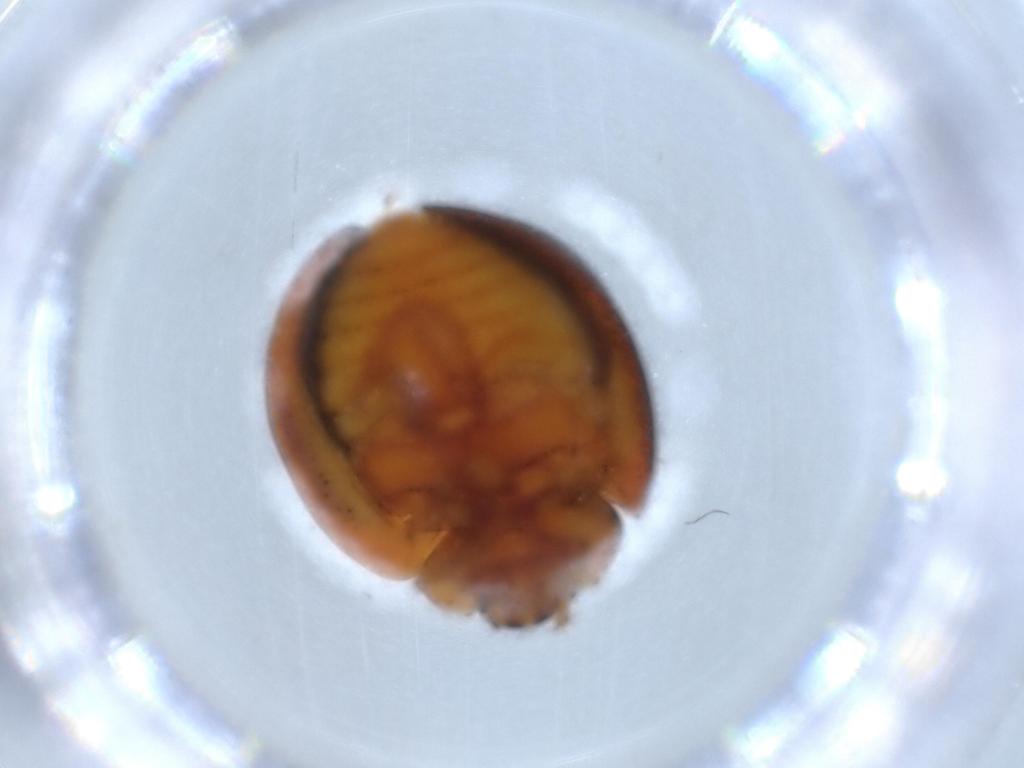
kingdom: Animalia
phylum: Arthropoda
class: Insecta
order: Coleoptera
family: Coccinellidae
